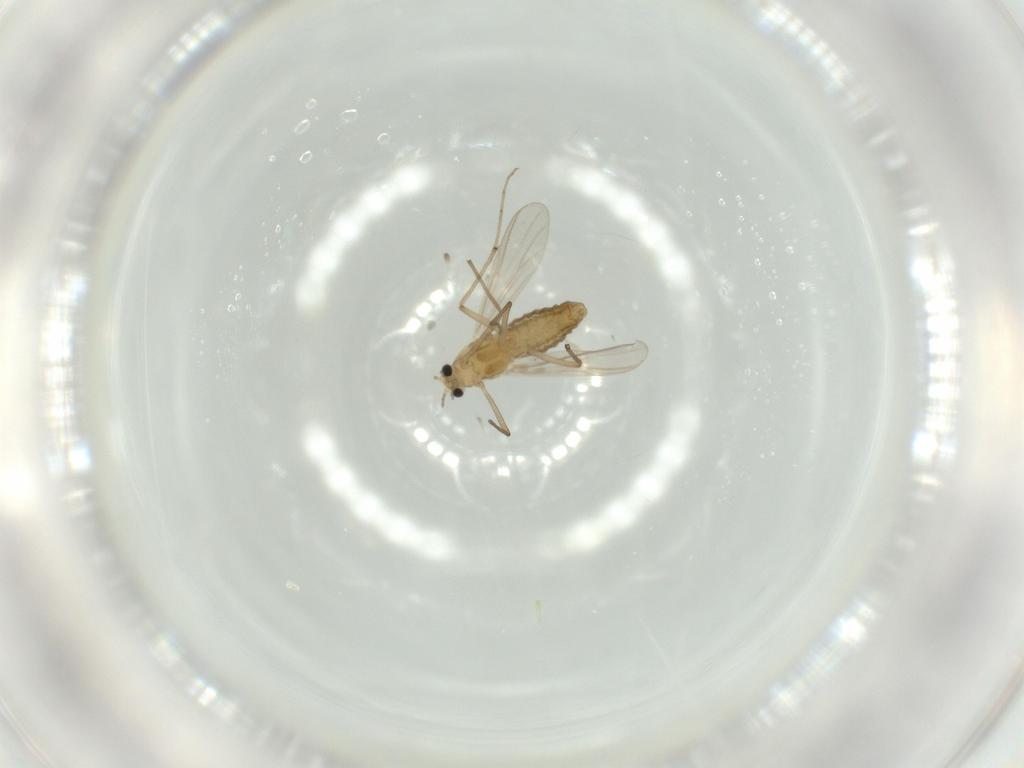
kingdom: Animalia
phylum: Arthropoda
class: Insecta
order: Diptera
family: Chironomidae
